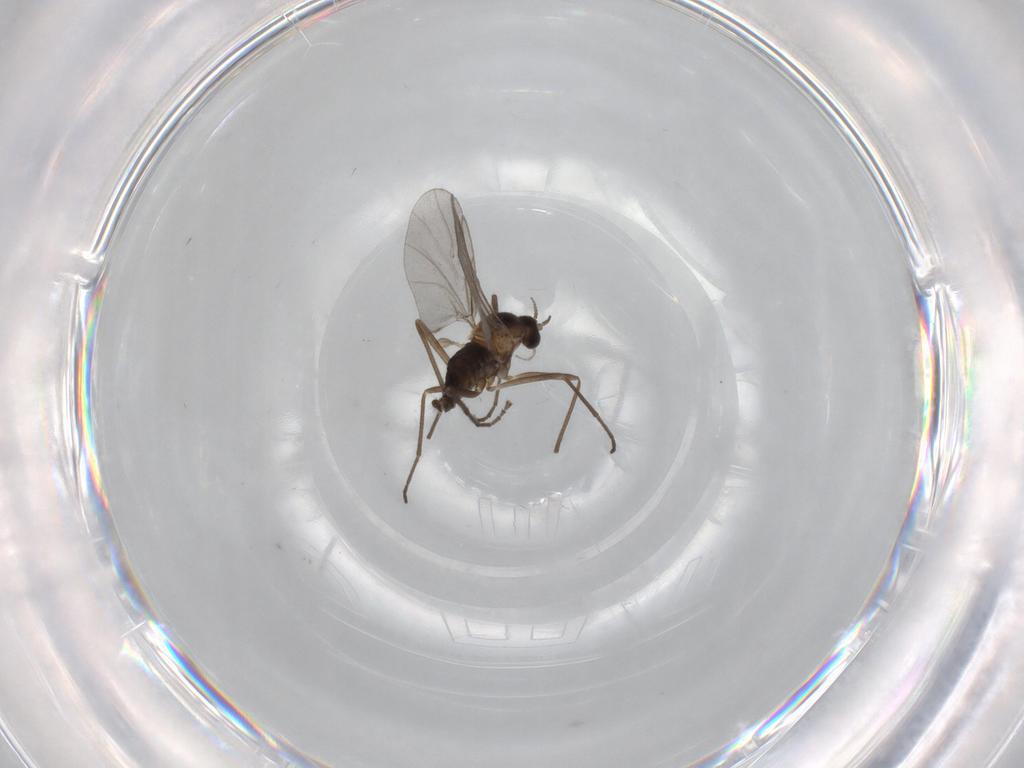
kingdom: Animalia
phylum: Arthropoda
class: Insecta
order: Diptera
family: Cecidomyiidae
